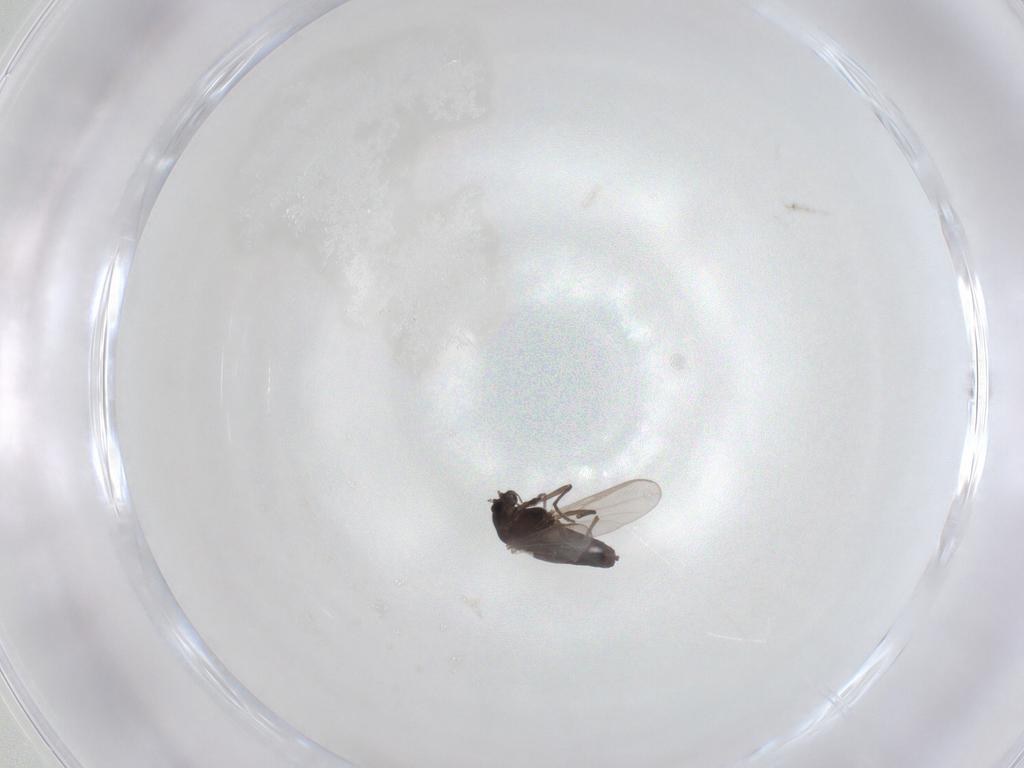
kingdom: Animalia
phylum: Arthropoda
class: Insecta
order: Diptera
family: Chironomidae
